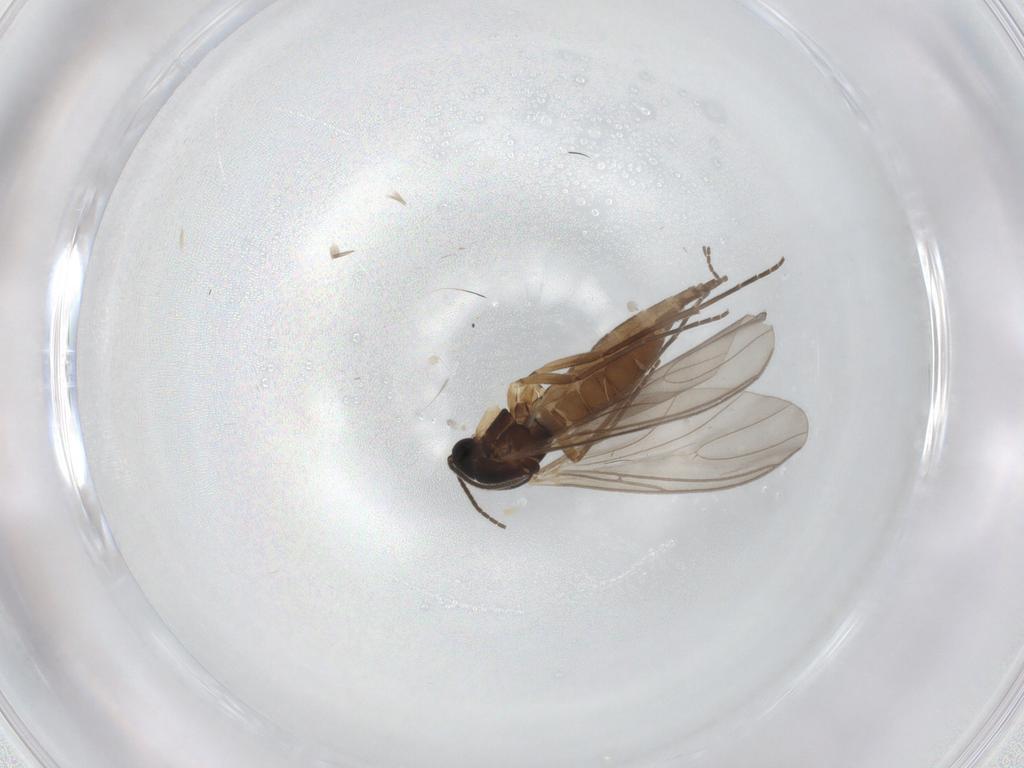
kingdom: Animalia
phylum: Arthropoda
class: Insecta
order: Diptera
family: Sciaridae
